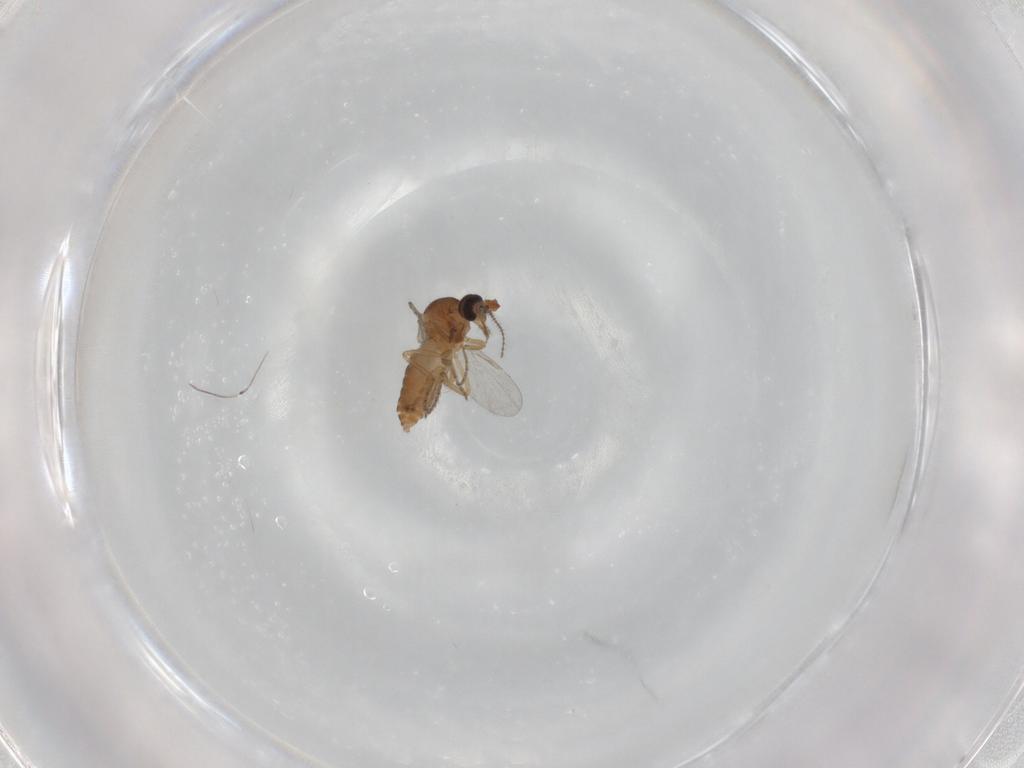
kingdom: Animalia
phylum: Arthropoda
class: Insecta
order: Diptera
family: Ceratopogonidae
